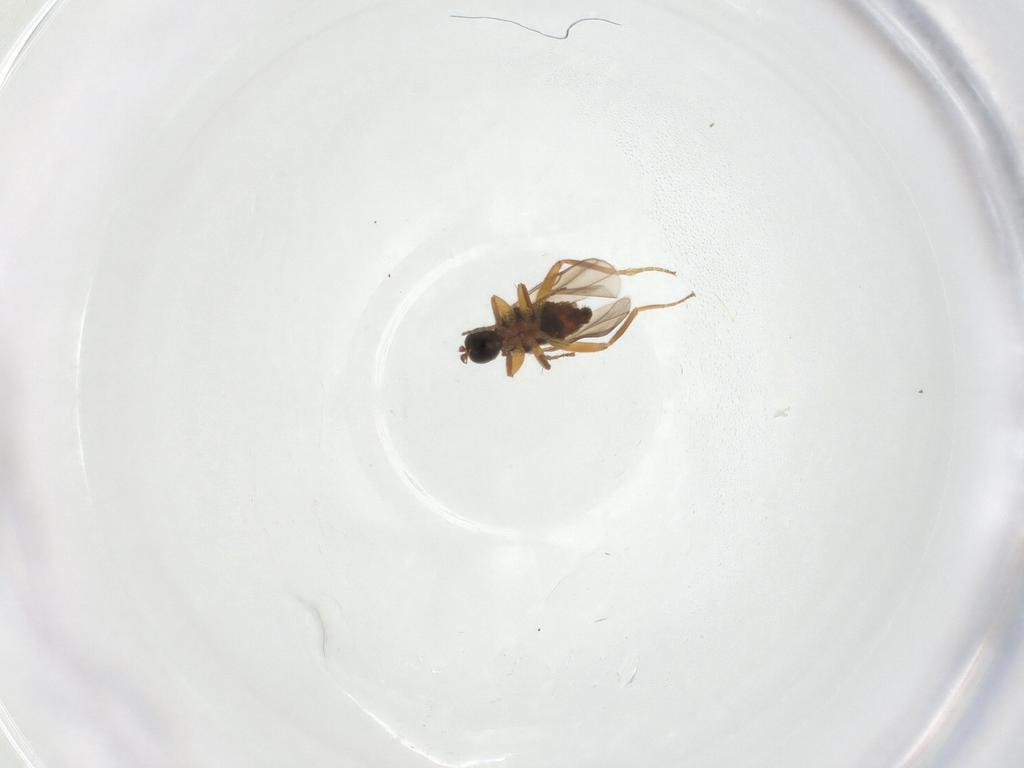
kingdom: Animalia
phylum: Arthropoda
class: Insecta
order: Diptera
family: Hybotidae
